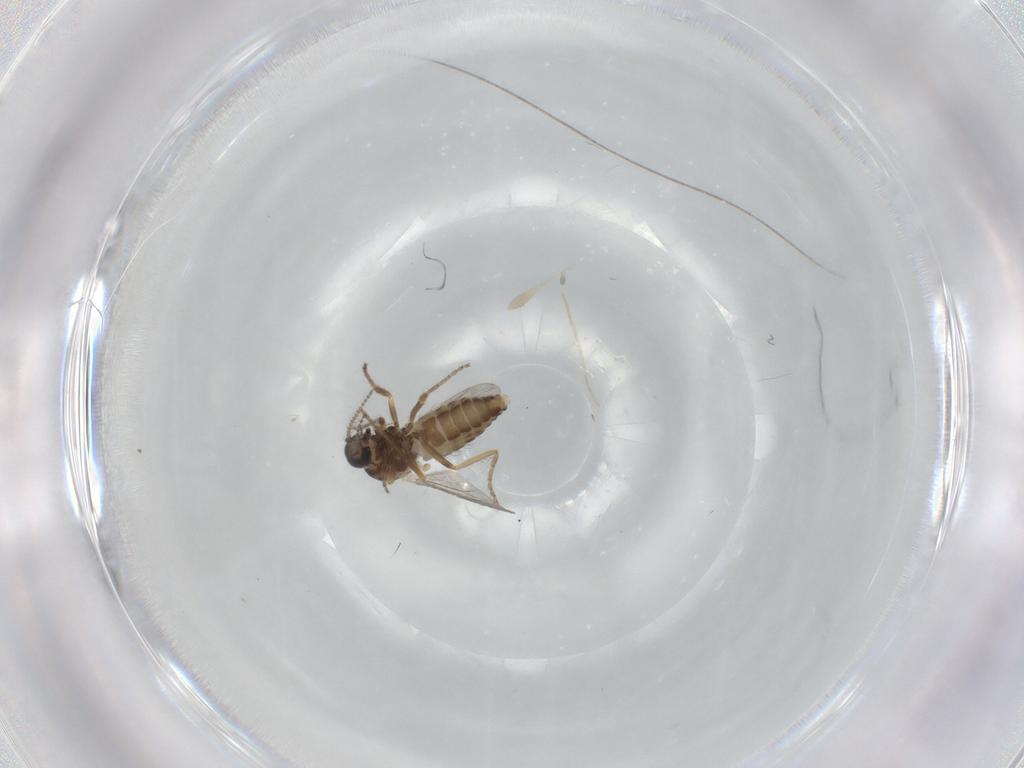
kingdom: Animalia
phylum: Arthropoda
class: Insecta
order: Diptera
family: Ceratopogonidae
